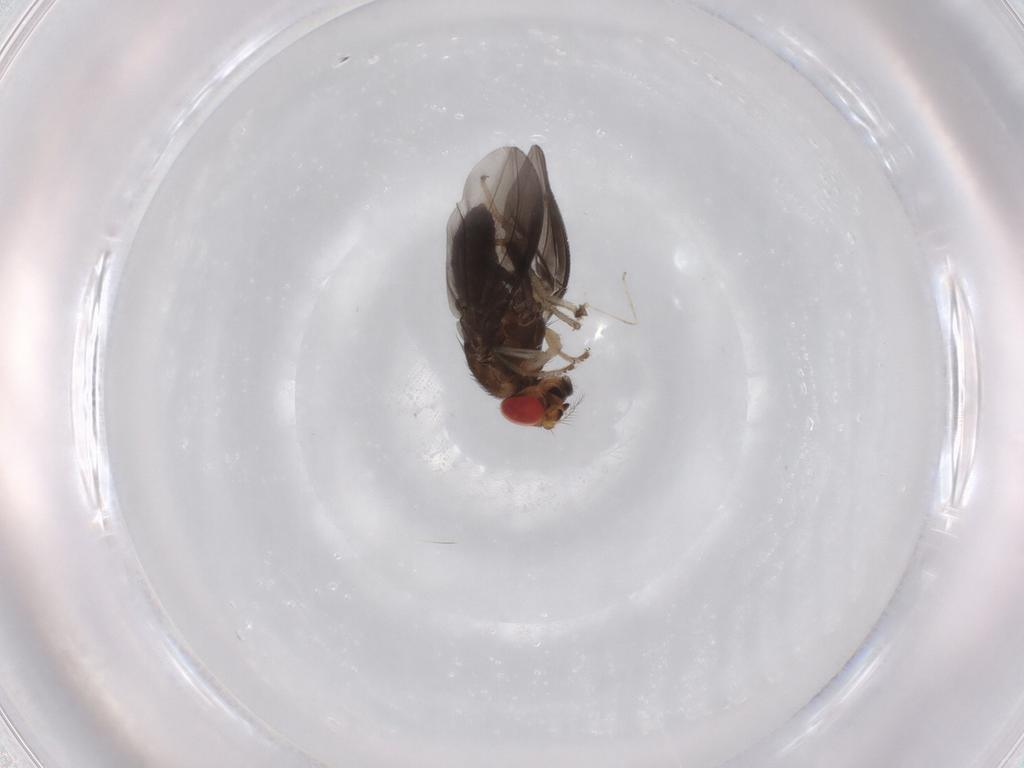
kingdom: Animalia
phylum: Arthropoda
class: Insecta
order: Diptera
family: Drosophilidae
